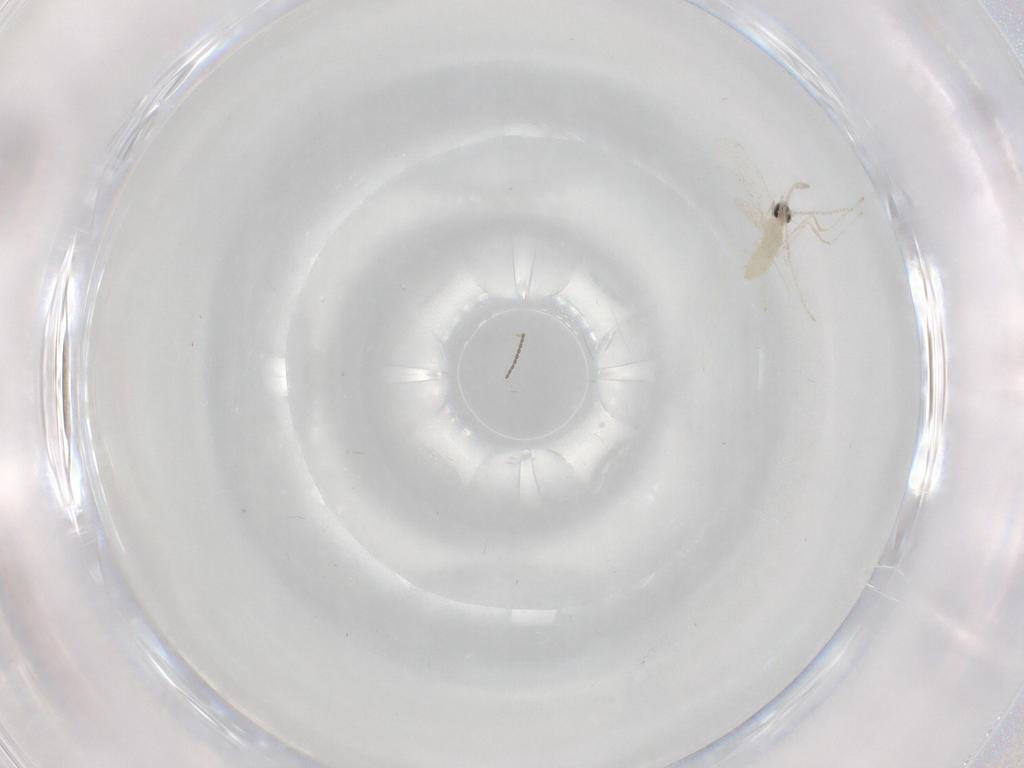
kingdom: Animalia
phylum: Arthropoda
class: Insecta
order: Diptera
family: Cecidomyiidae
